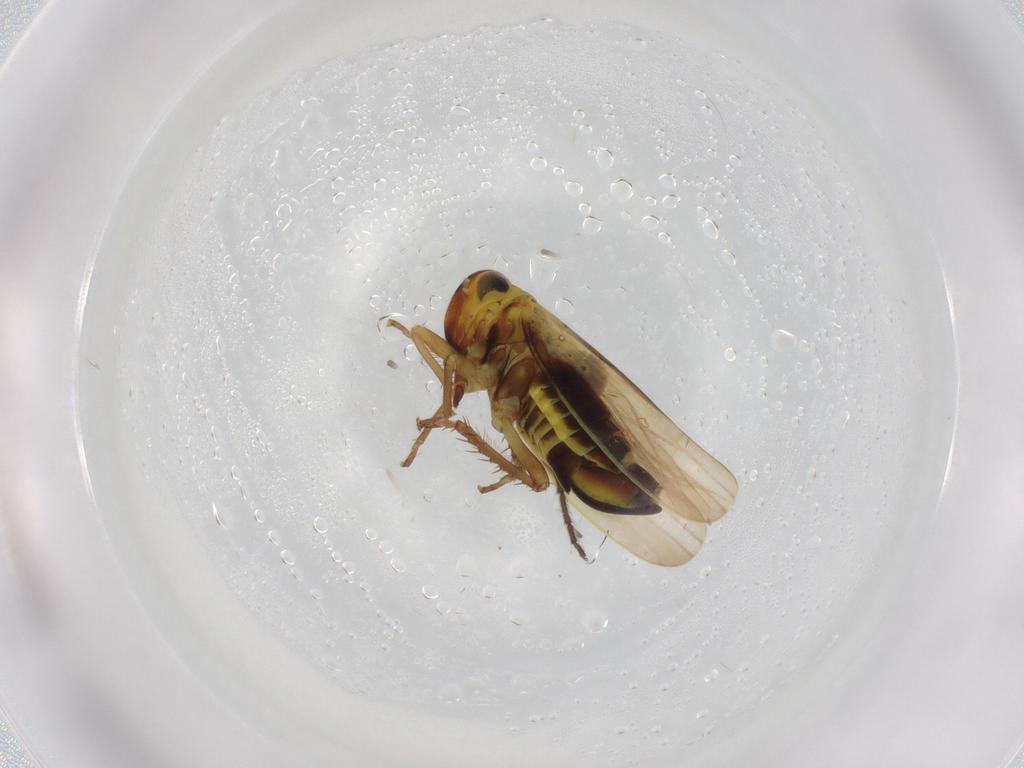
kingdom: Animalia
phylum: Arthropoda
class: Insecta
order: Hemiptera
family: Cicadellidae
